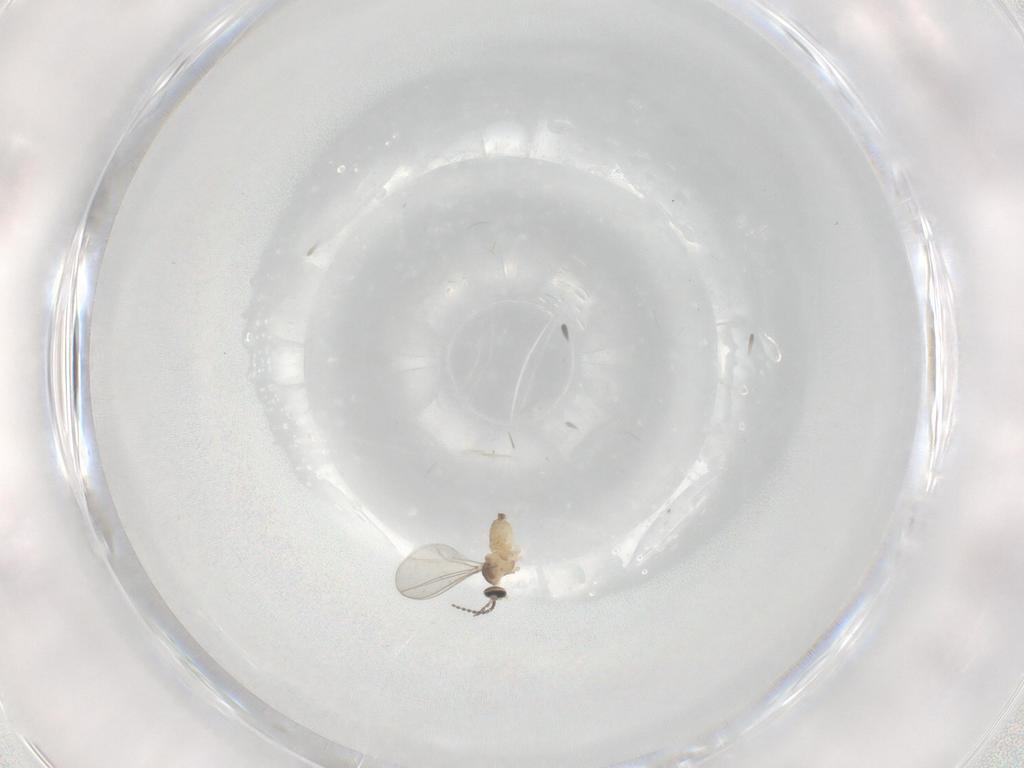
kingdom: Animalia
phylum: Arthropoda
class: Insecta
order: Diptera
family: Cecidomyiidae
